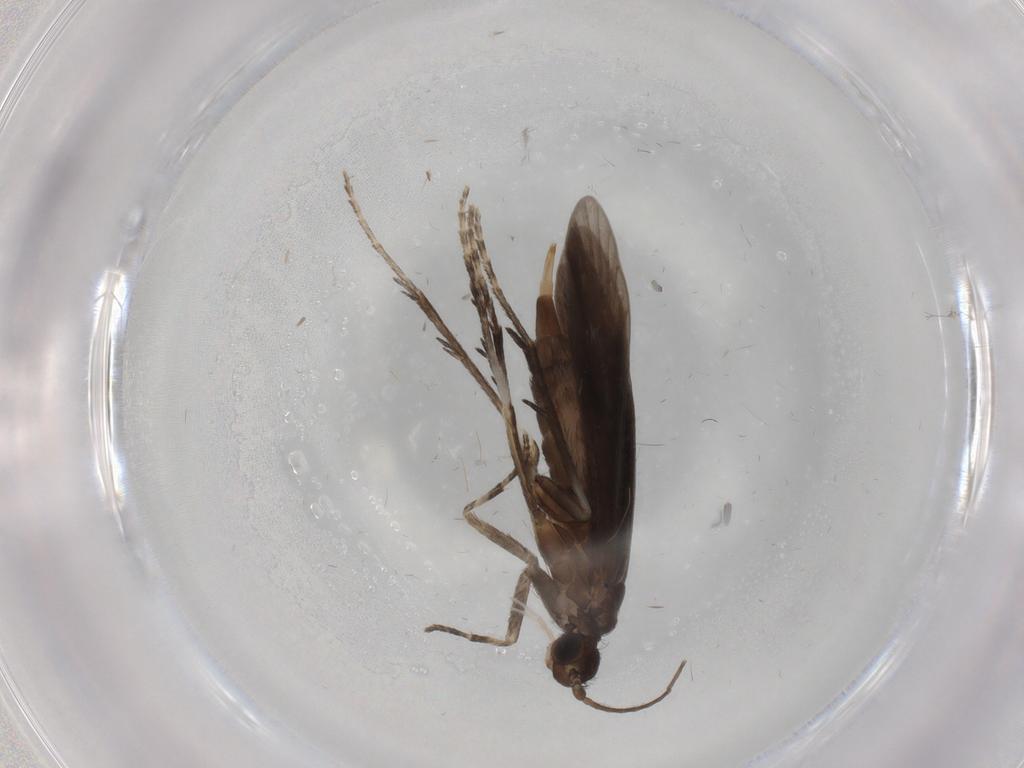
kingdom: Animalia
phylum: Arthropoda
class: Insecta
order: Trichoptera
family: Xiphocentronidae
